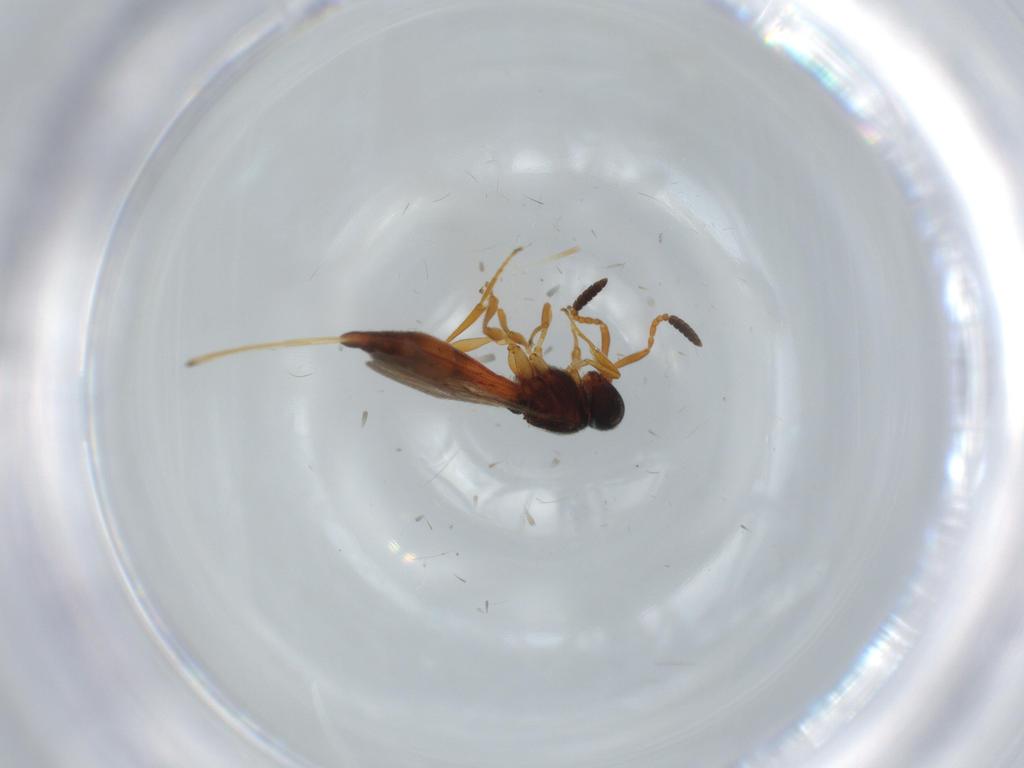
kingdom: Animalia
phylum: Arthropoda
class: Insecta
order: Hymenoptera
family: Scelionidae
